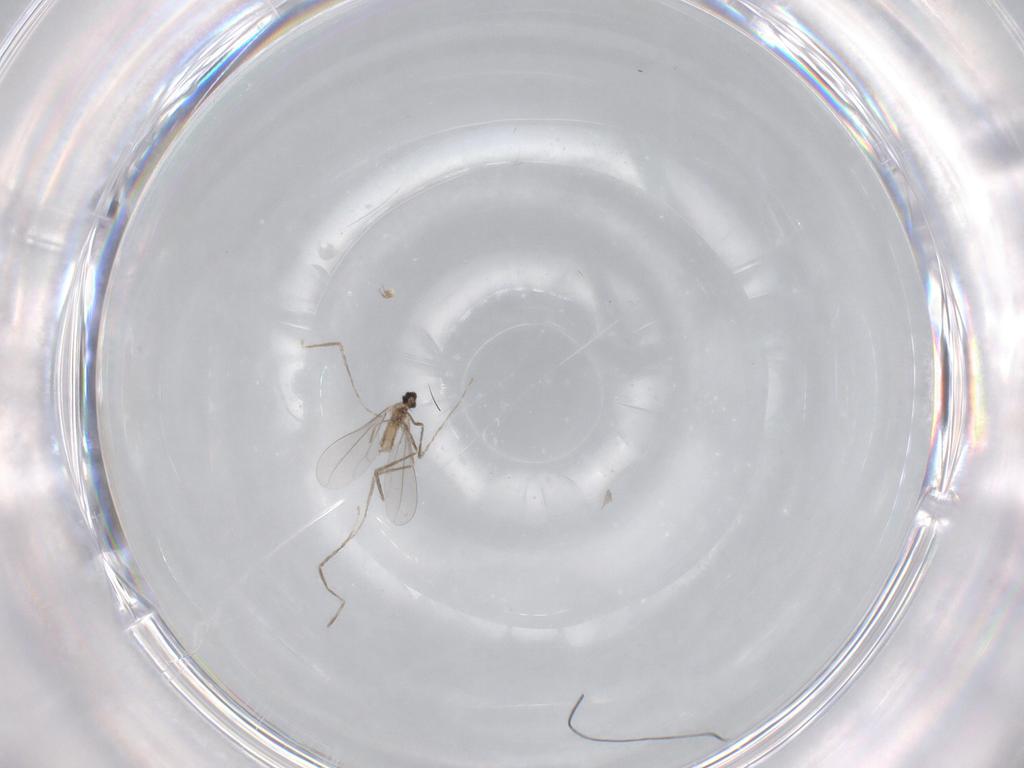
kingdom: Animalia
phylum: Arthropoda
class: Insecta
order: Diptera
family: Cecidomyiidae
